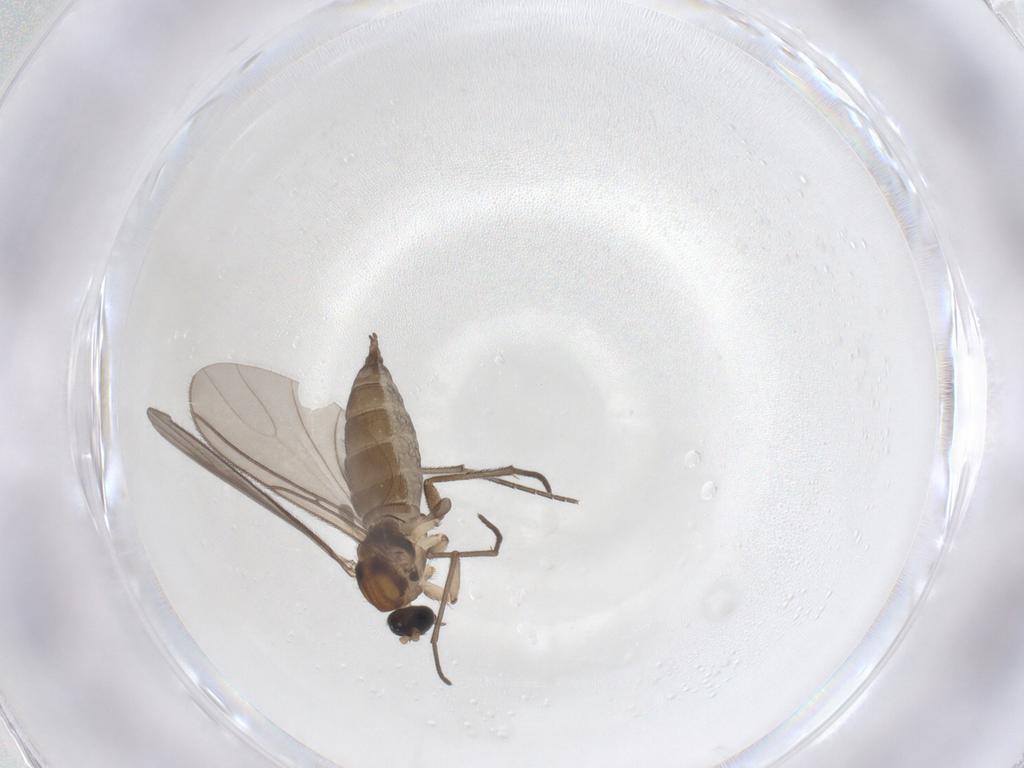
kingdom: Animalia
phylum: Arthropoda
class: Insecta
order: Diptera
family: Sciaridae
